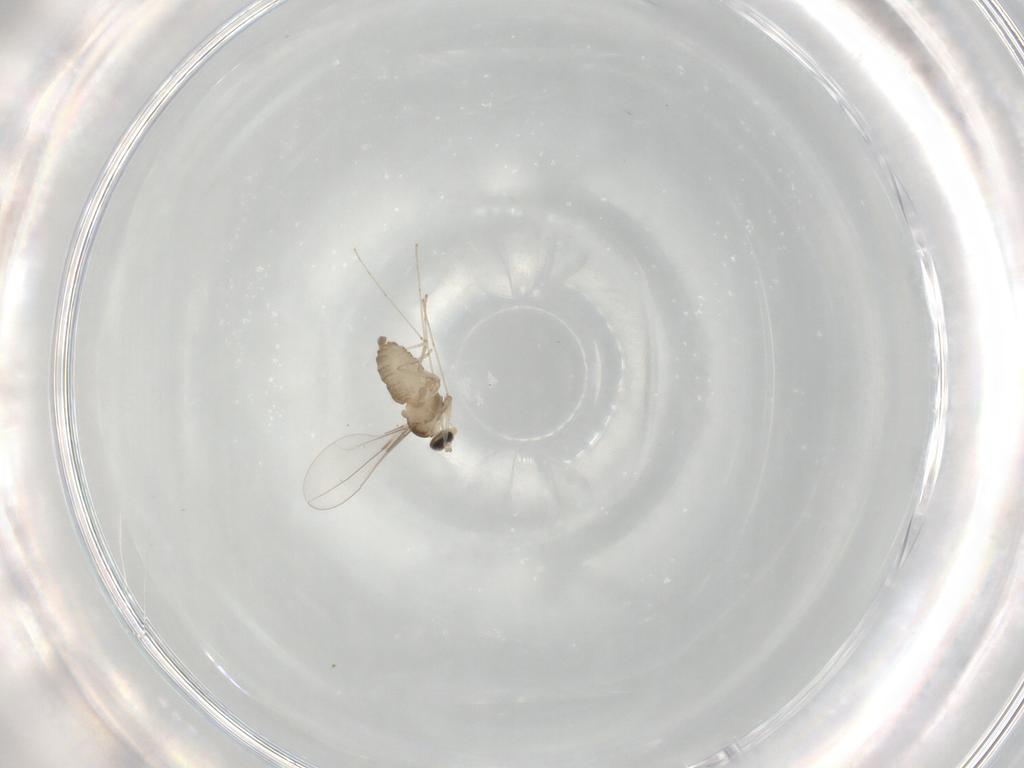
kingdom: Animalia
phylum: Arthropoda
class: Insecta
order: Diptera
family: Cecidomyiidae
